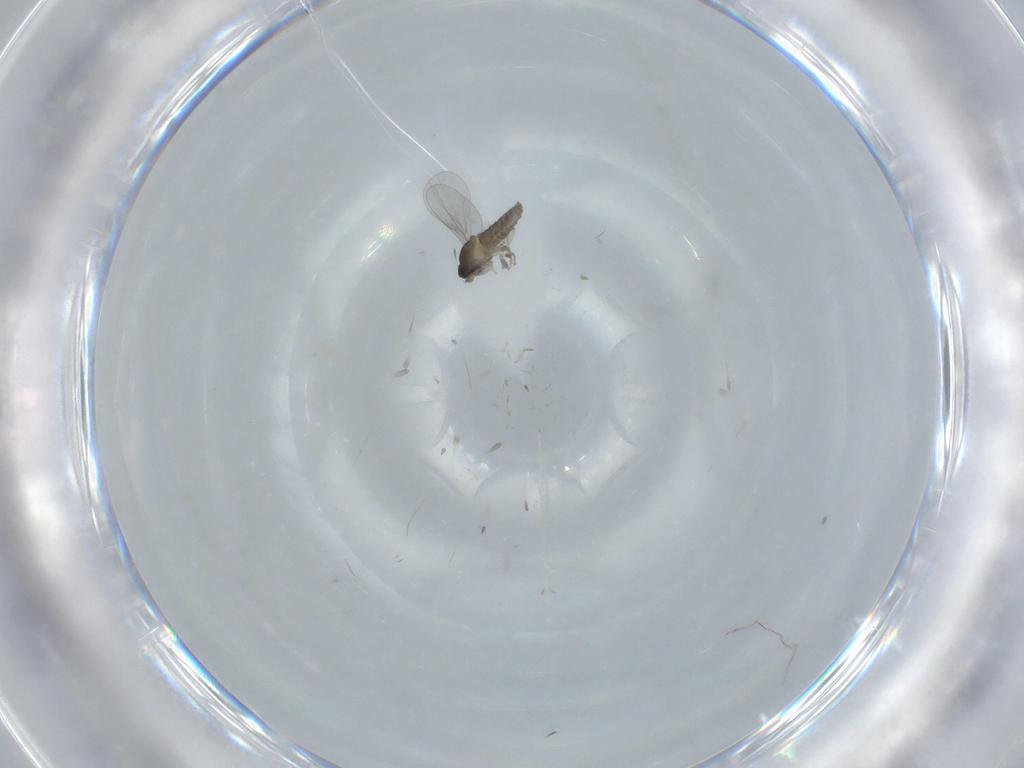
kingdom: Animalia
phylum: Arthropoda
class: Insecta
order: Diptera
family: Cecidomyiidae
